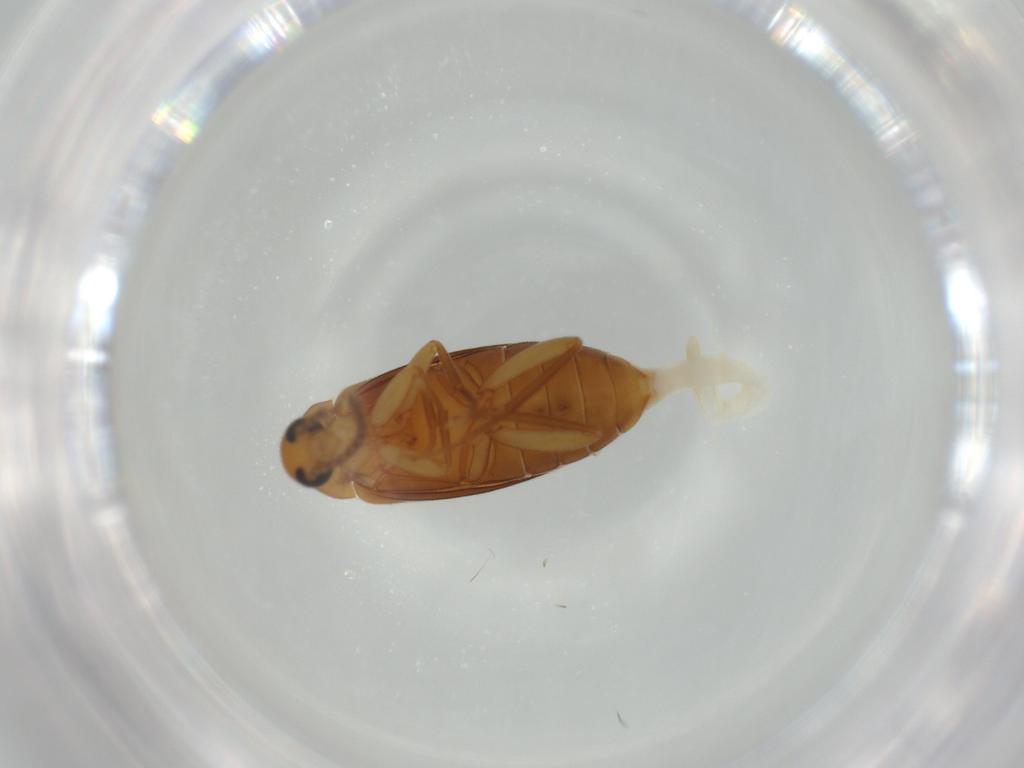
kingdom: Animalia
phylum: Arthropoda
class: Insecta
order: Coleoptera
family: Eucnemidae
